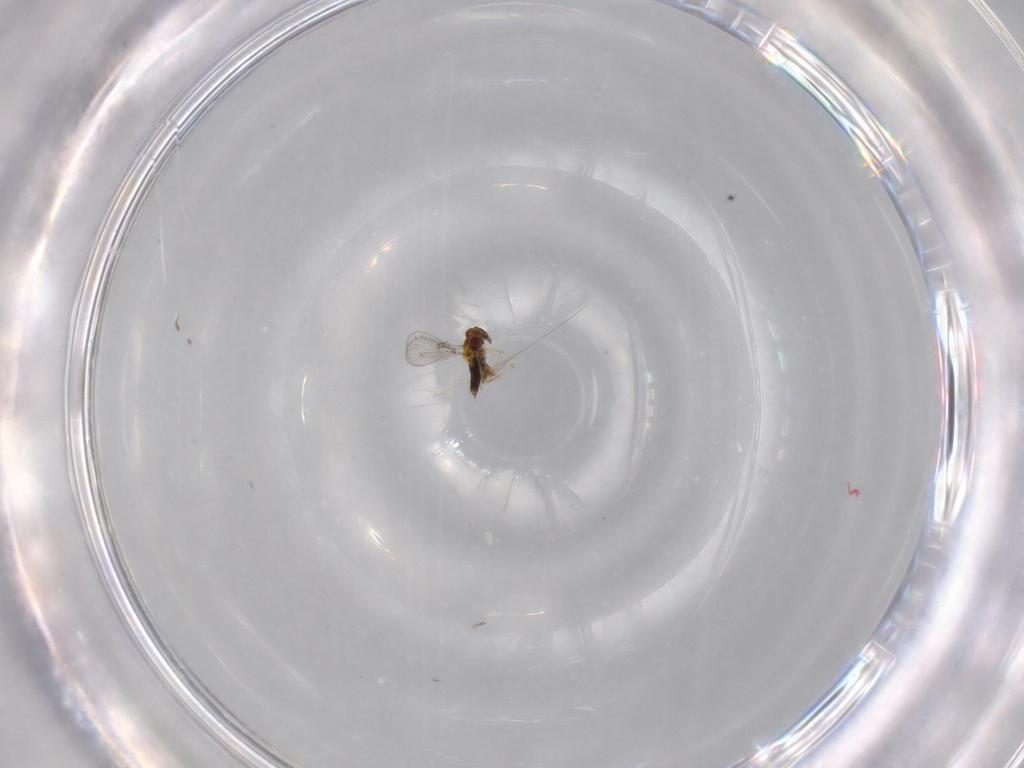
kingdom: Animalia
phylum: Arthropoda
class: Insecta
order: Hymenoptera
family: Trichogrammatidae
